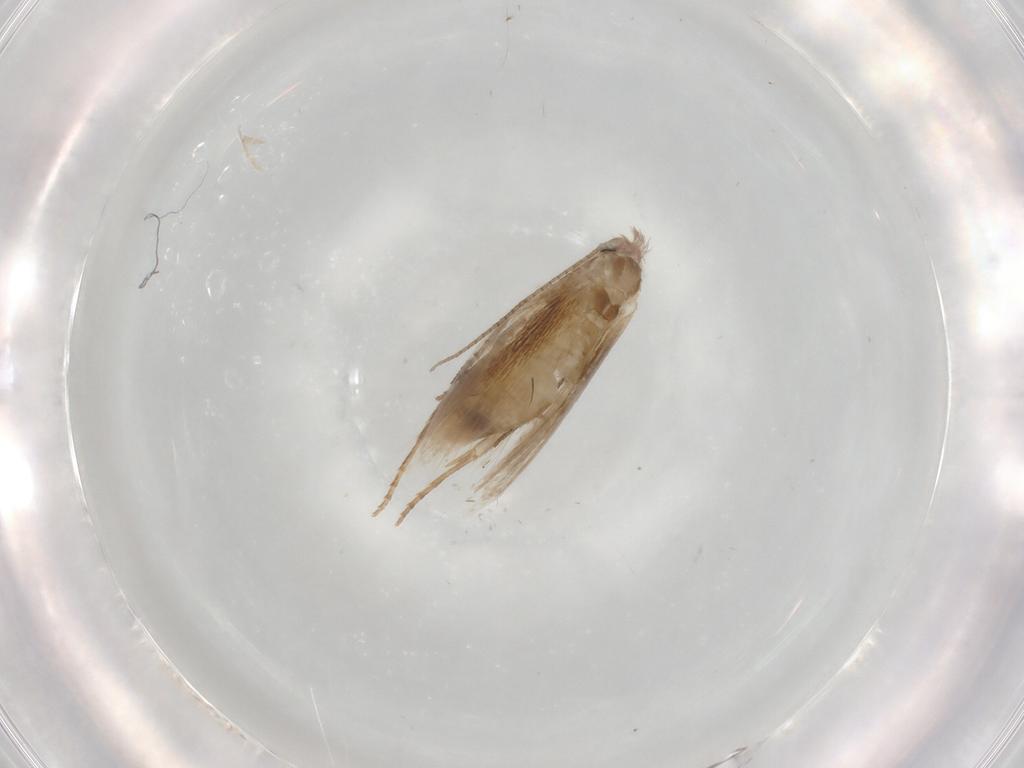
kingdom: Animalia
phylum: Arthropoda
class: Insecta
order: Lepidoptera
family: Bucculatricidae
